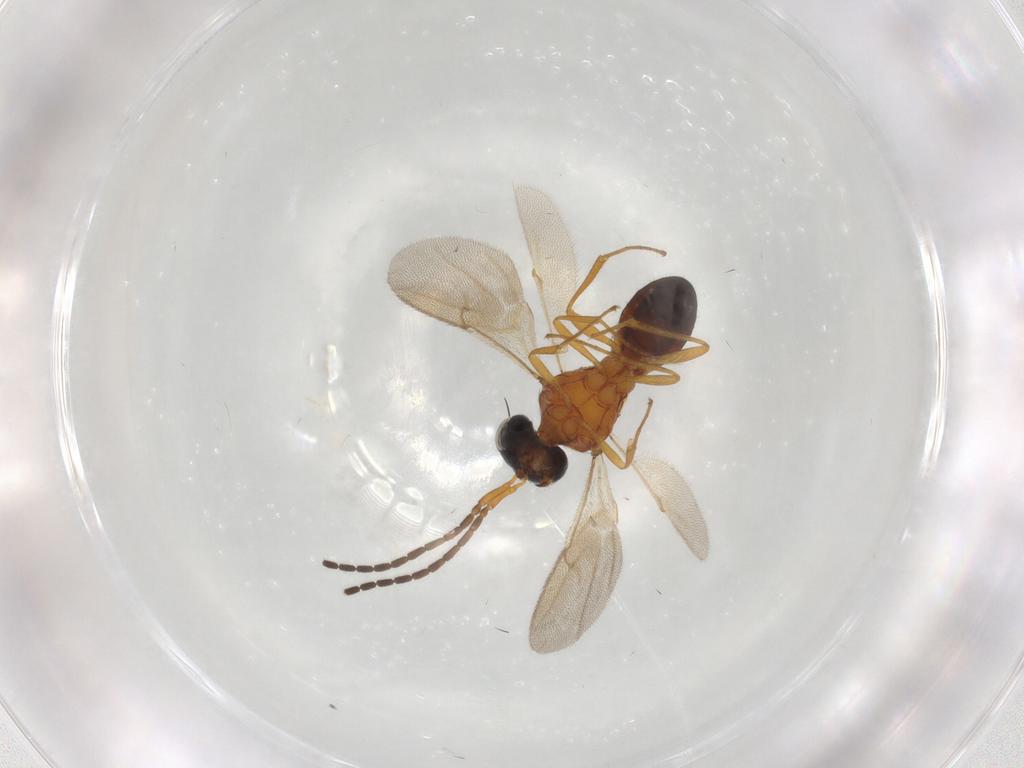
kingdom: Animalia
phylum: Arthropoda
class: Insecta
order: Hymenoptera
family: Scelionidae
